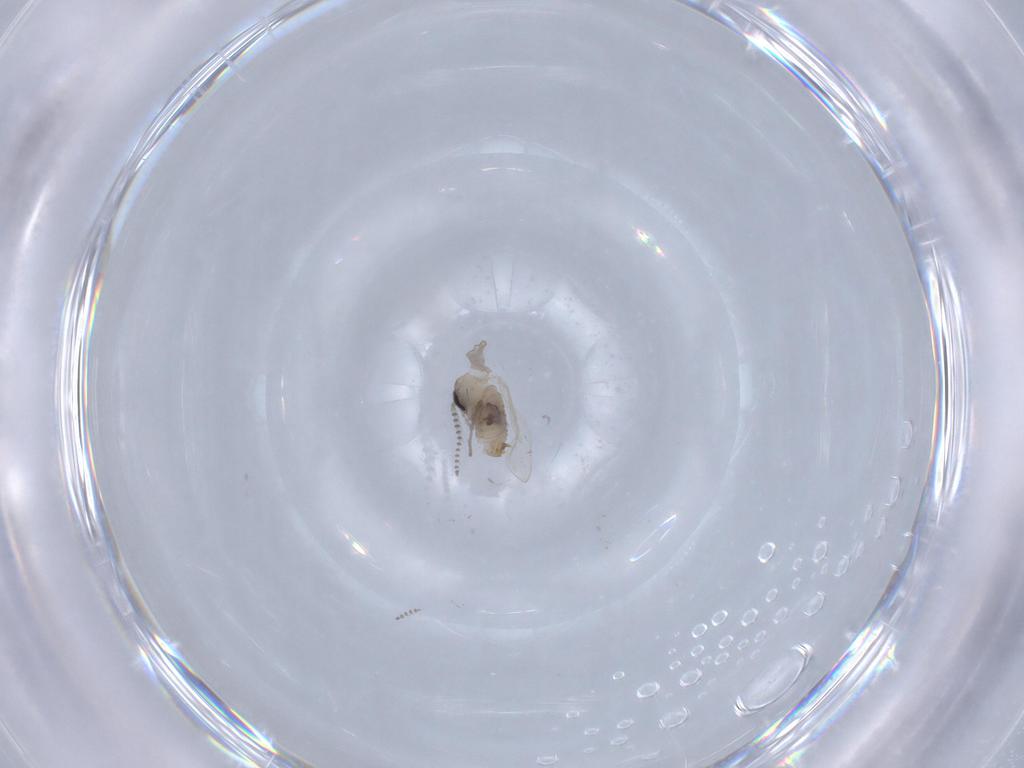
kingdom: Animalia
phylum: Arthropoda
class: Insecta
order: Diptera
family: Psychodidae
